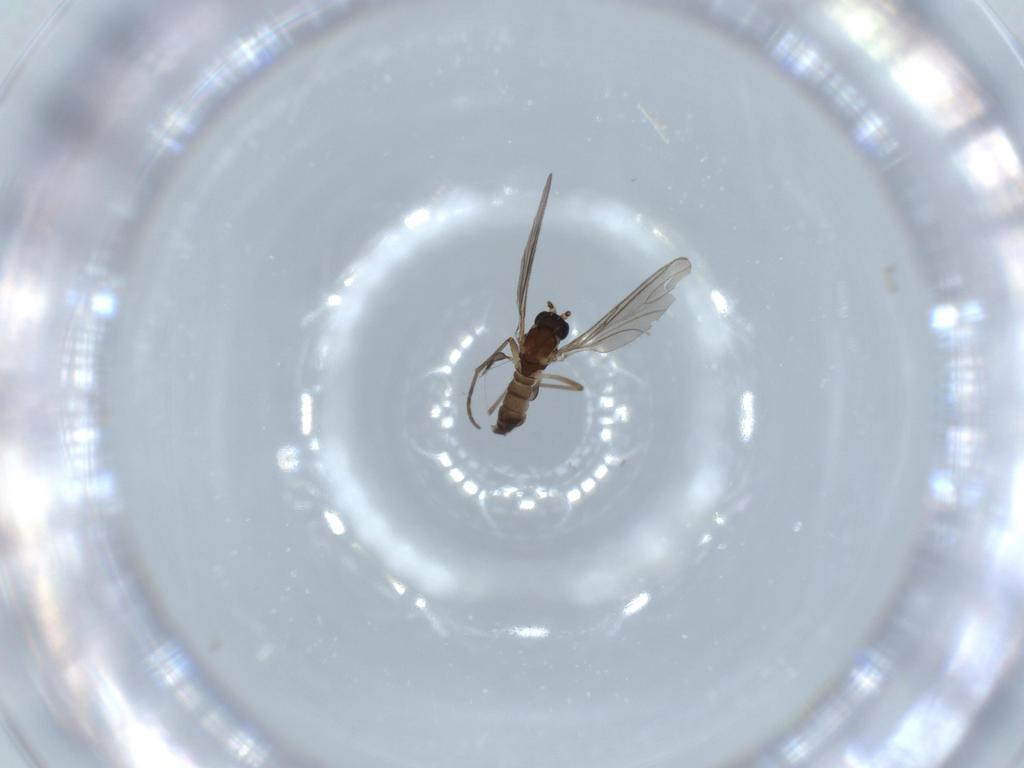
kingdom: Animalia
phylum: Arthropoda
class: Insecta
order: Diptera
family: Sciaridae
